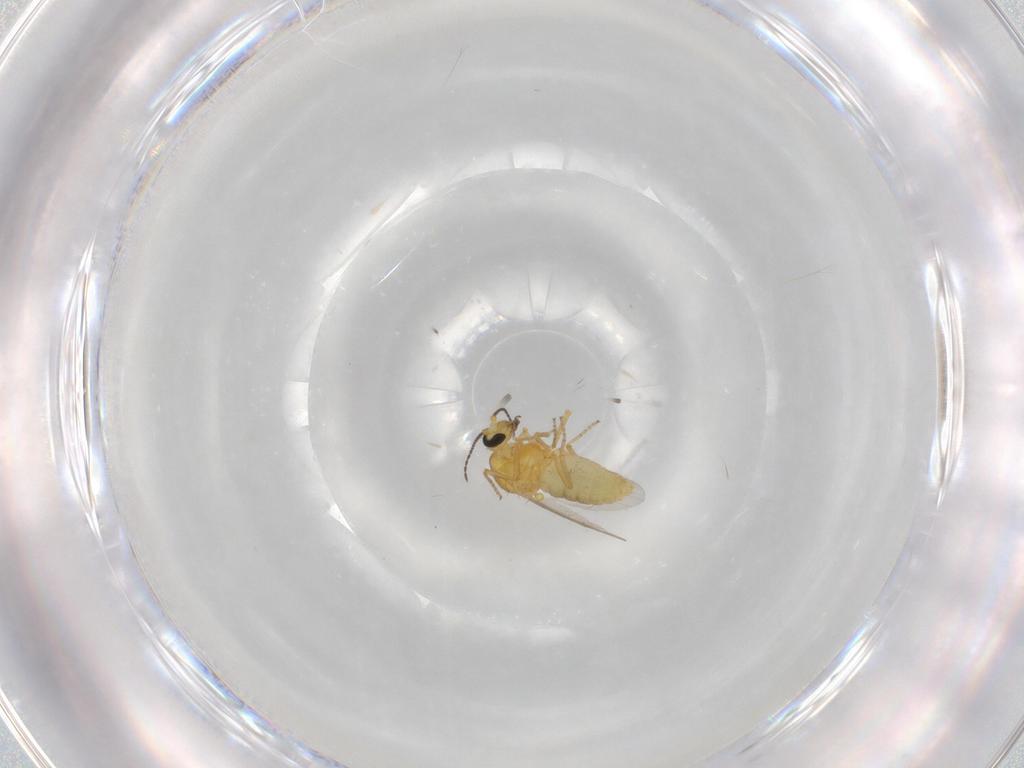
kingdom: Animalia
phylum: Arthropoda
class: Insecta
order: Diptera
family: Ceratopogonidae
